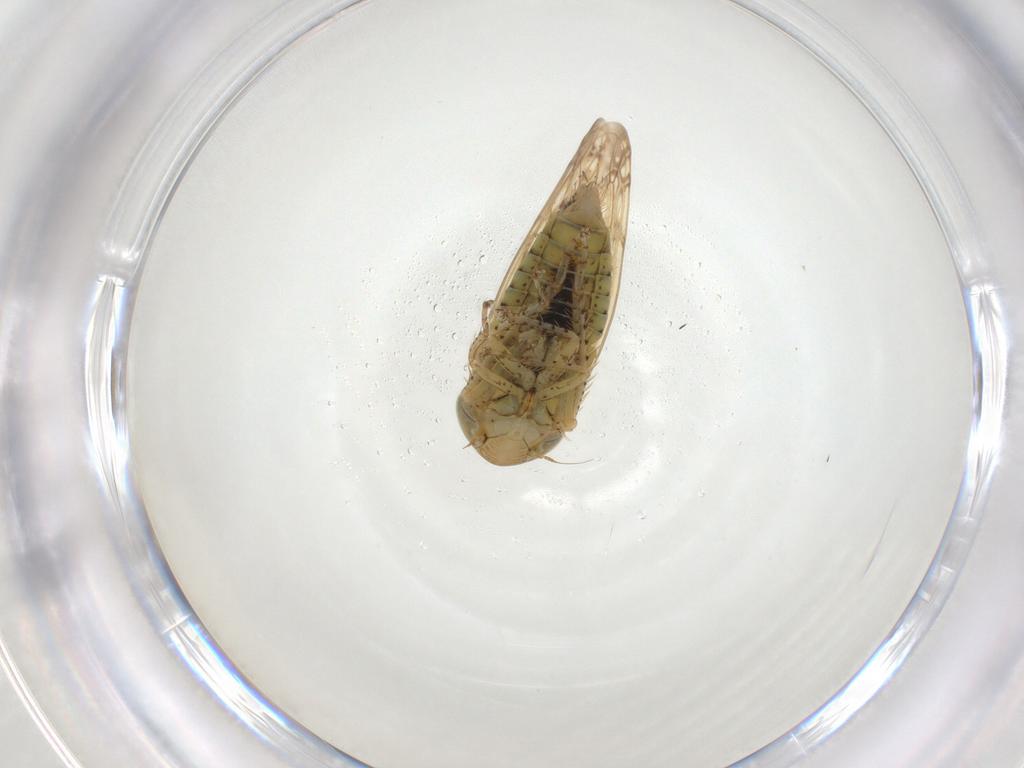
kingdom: Animalia
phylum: Arthropoda
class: Insecta
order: Hemiptera
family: Cicadellidae
